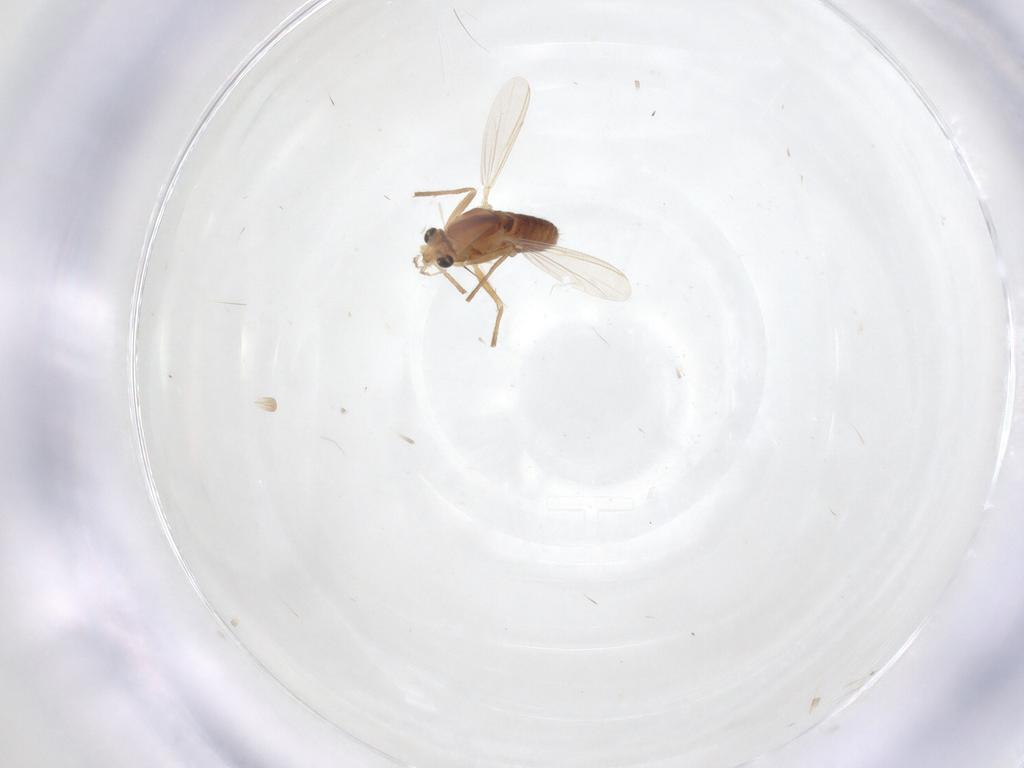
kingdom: Animalia
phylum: Arthropoda
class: Insecta
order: Diptera
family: Chironomidae
